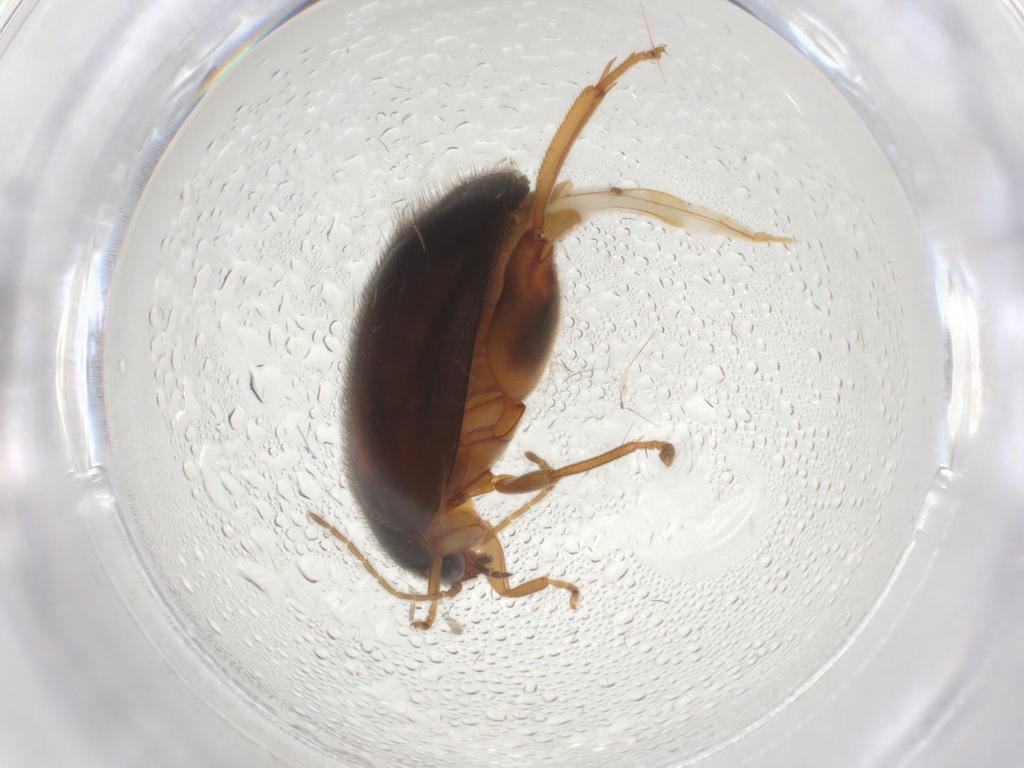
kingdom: Animalia
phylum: Arthropoda
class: Insecta
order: Coleoptera
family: Scirtidae
